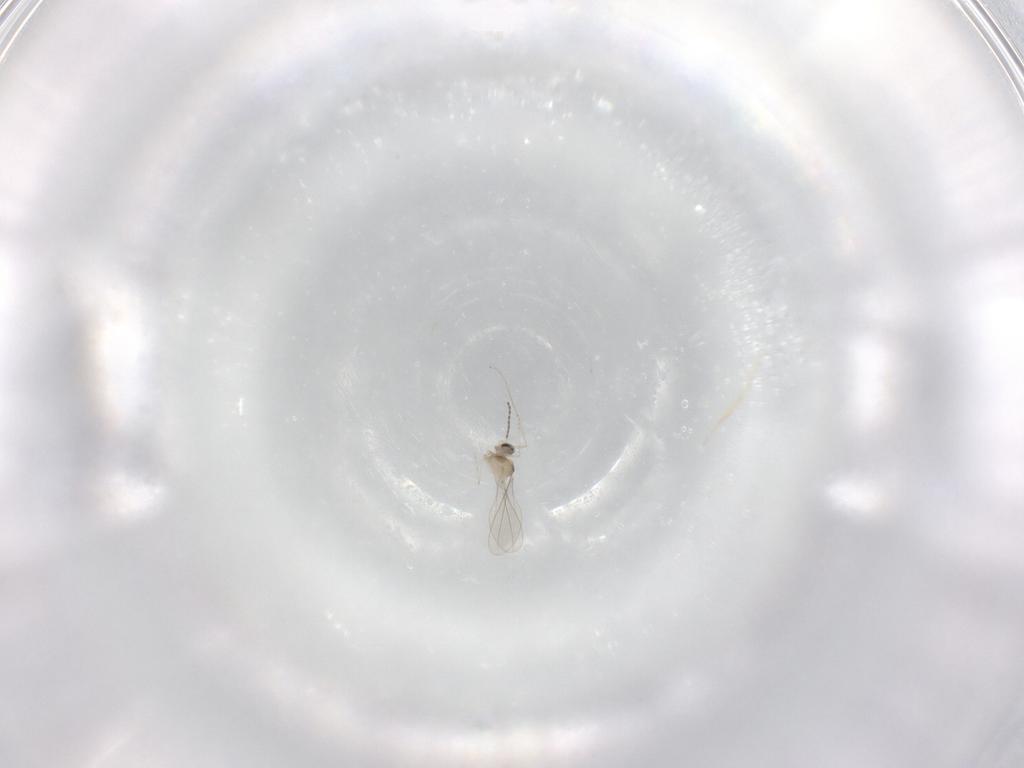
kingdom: Animalia
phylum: Arthropoda
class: Insecta
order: Diptera
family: Cecidomyiidae
